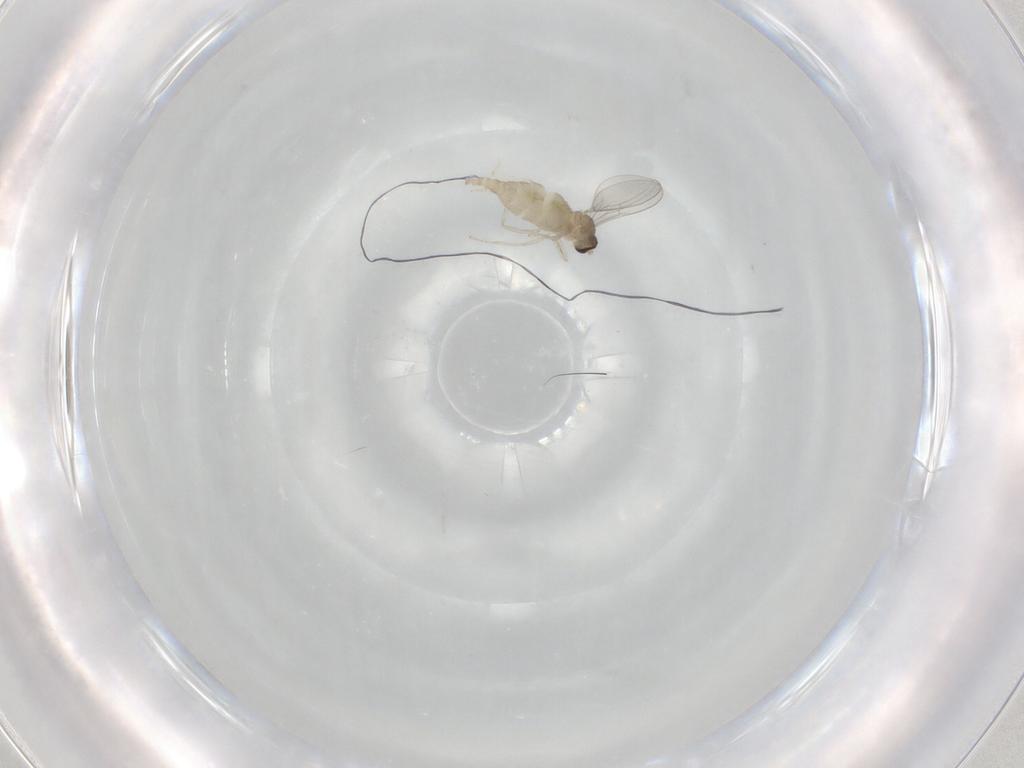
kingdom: Animalia
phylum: Arthropoda
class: Insecta
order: Diptera
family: Cecidomyiidae
